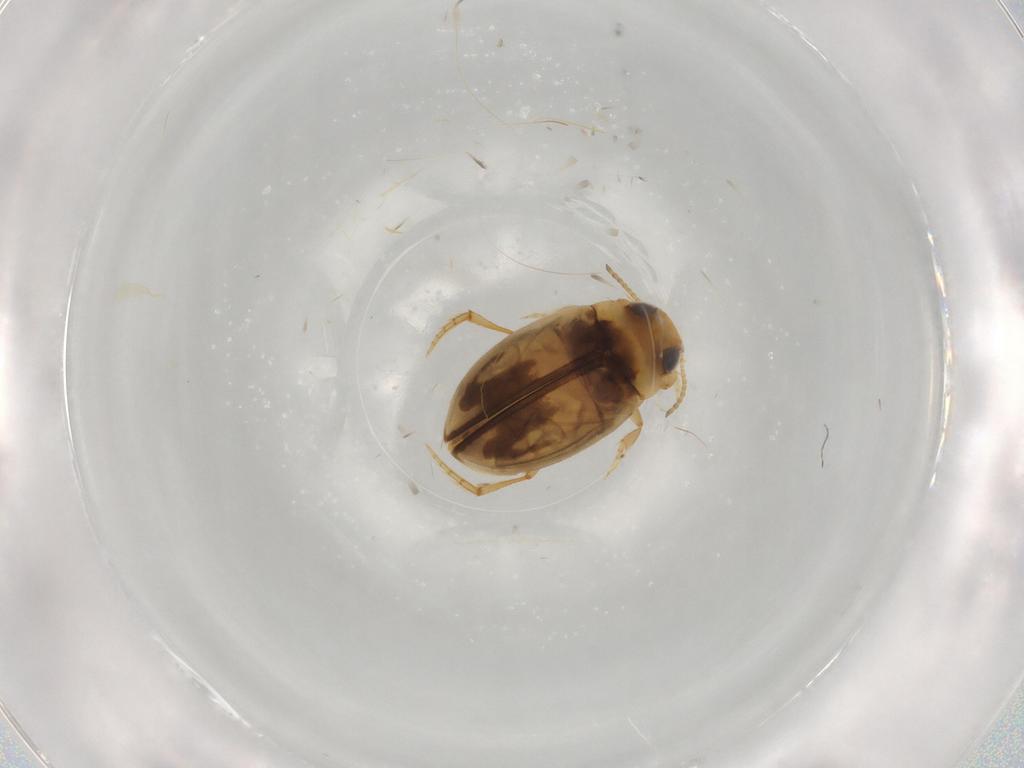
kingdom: Animalia
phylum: Arthropoda
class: Insecta
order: Coleoptera
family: Dytiscidae
